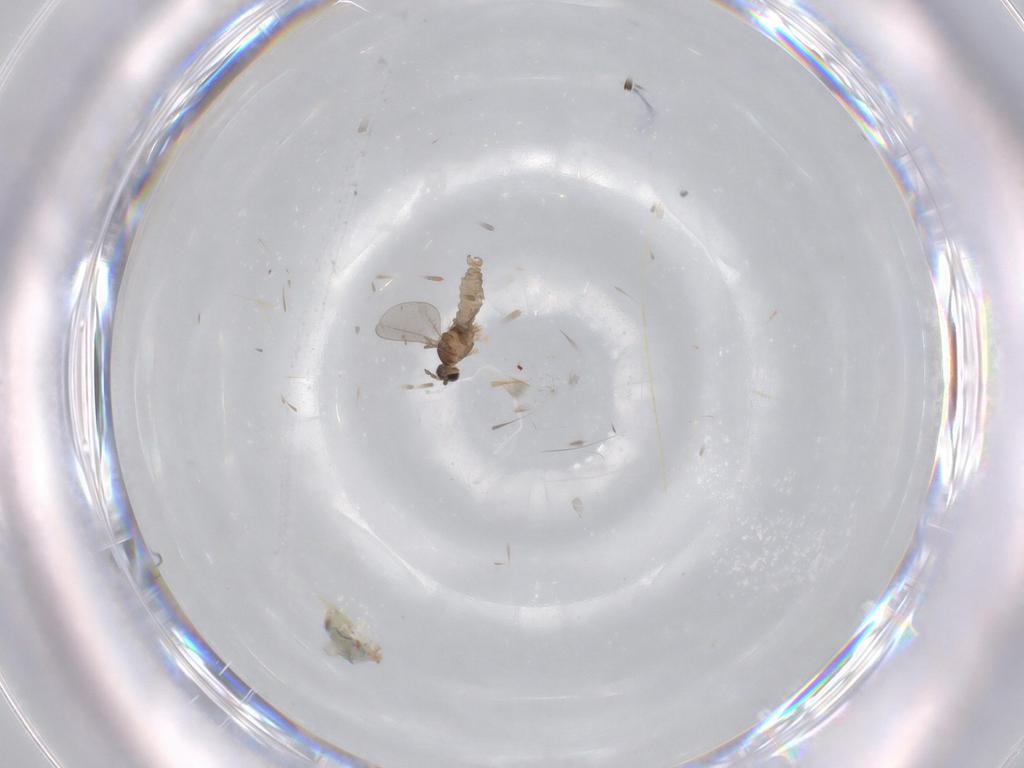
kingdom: Animalia
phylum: Arthropoda
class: Insecta
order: Diptera
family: Cecidomyiidae
